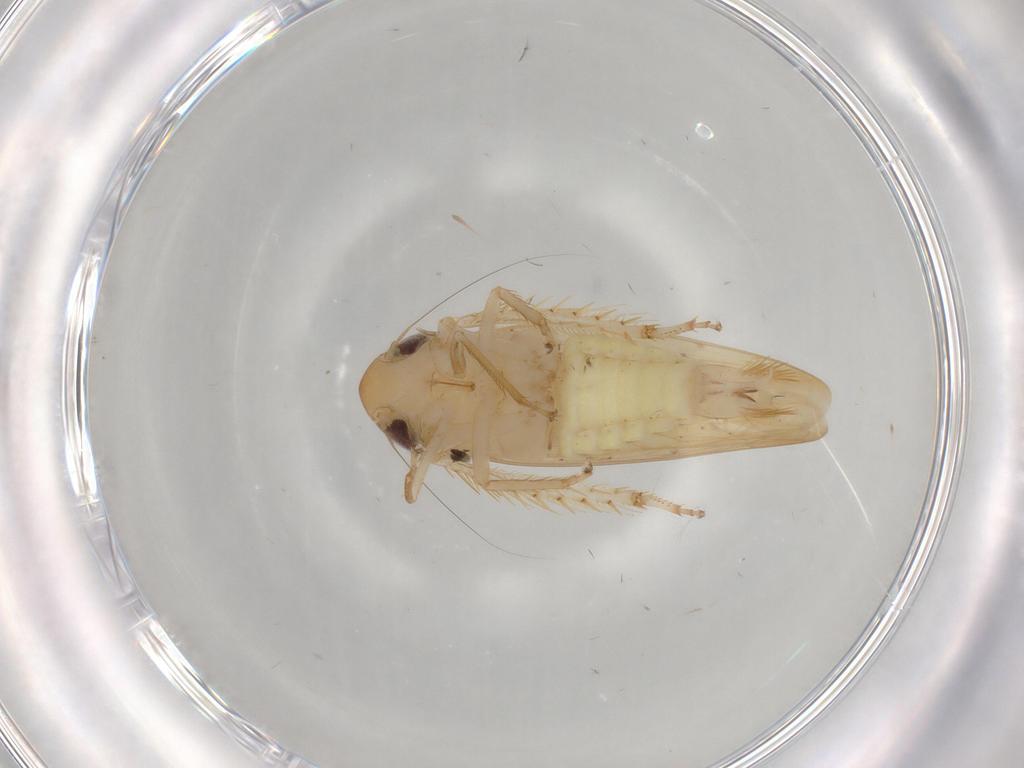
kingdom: Animalia
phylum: Arthropoda
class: Insecta
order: Hemiptera
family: Cicadellidae
